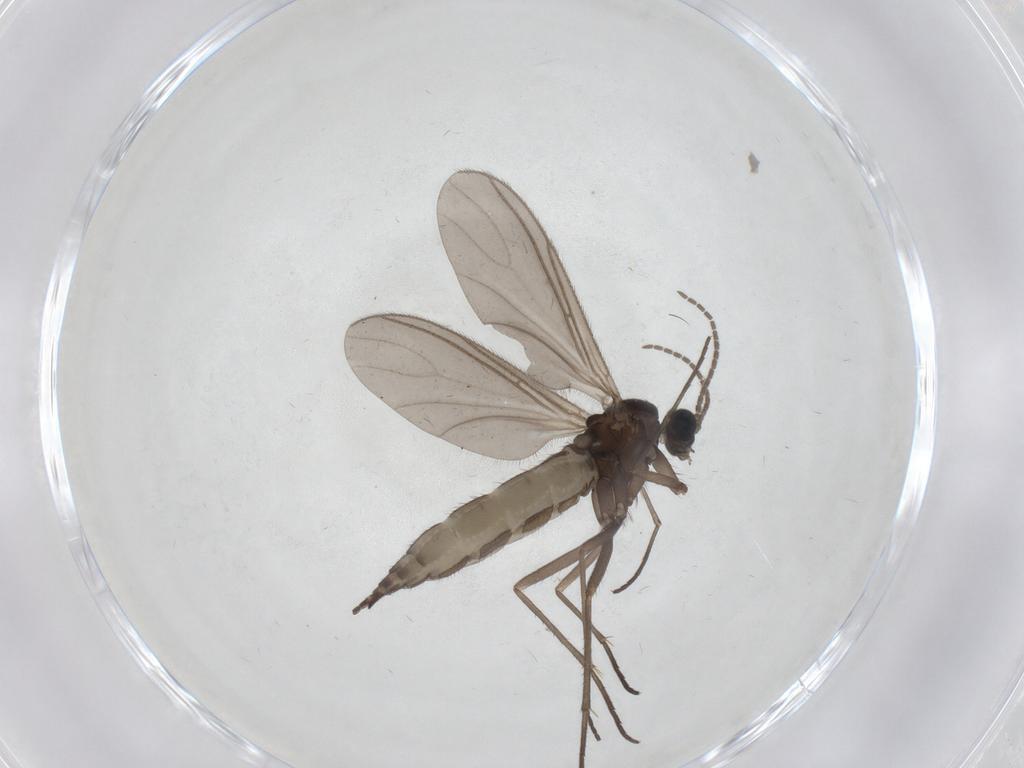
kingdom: Animalia
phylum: Arthropoda
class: Insecta
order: Diptera
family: Sciaridae
